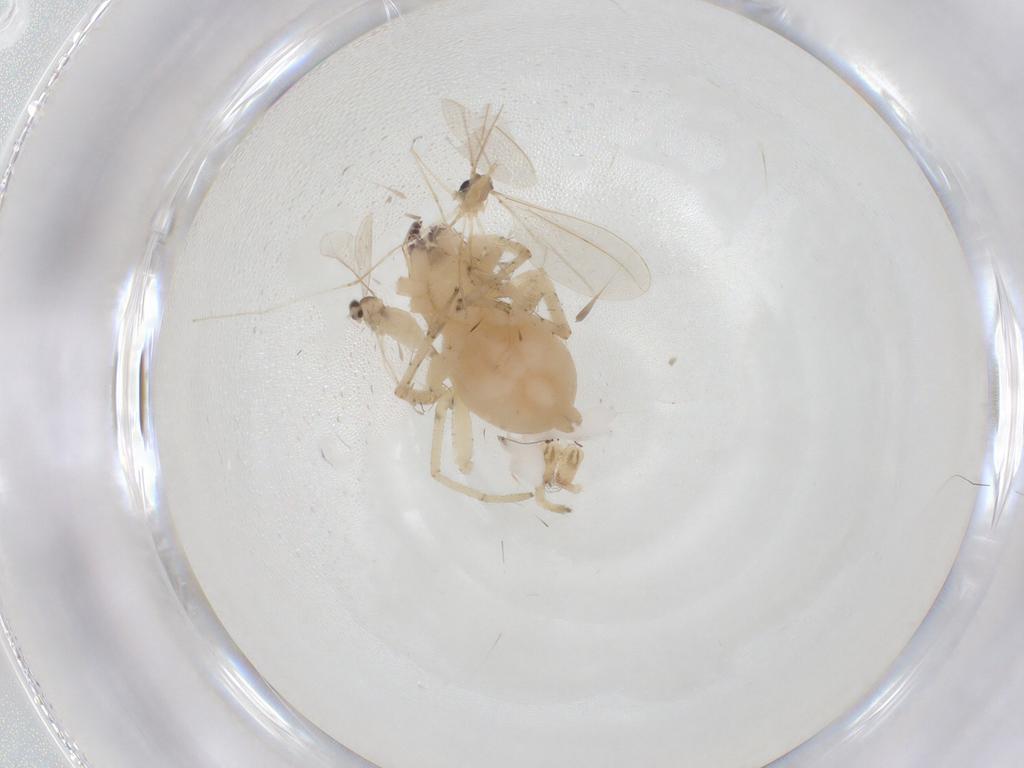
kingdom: Animalia
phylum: Arthropoda
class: Arachnida
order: Araneae
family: Anyphaenidae
